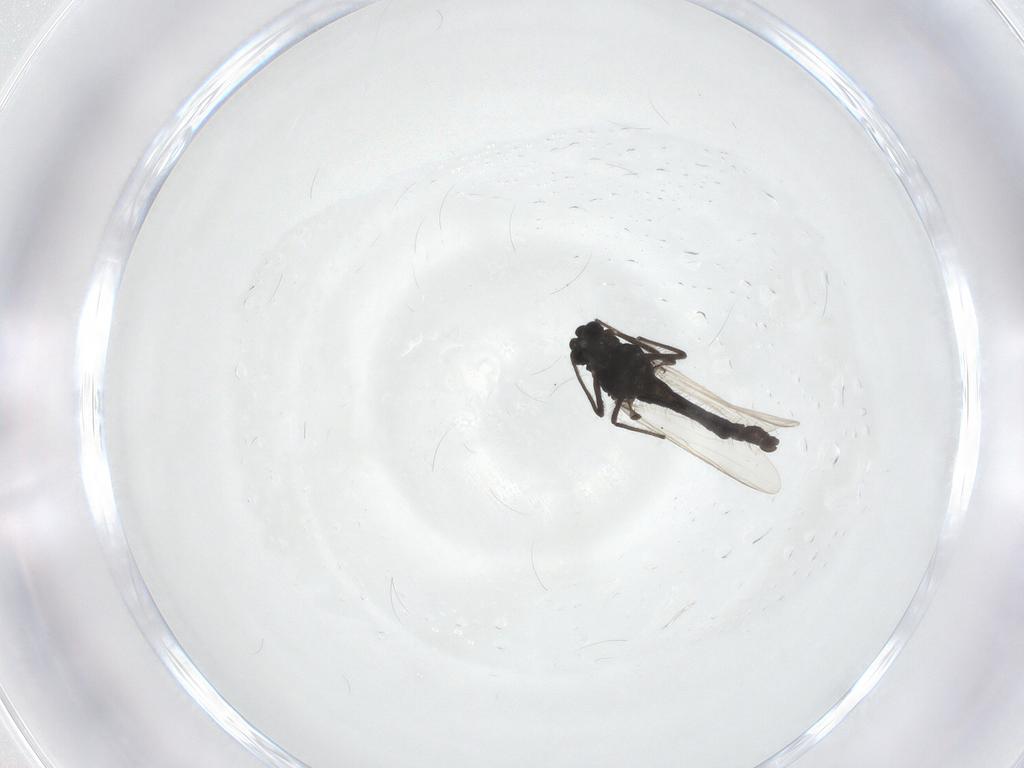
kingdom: Animalia
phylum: Arthropoda
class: Insecta
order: Diptera
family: Chironomidae
